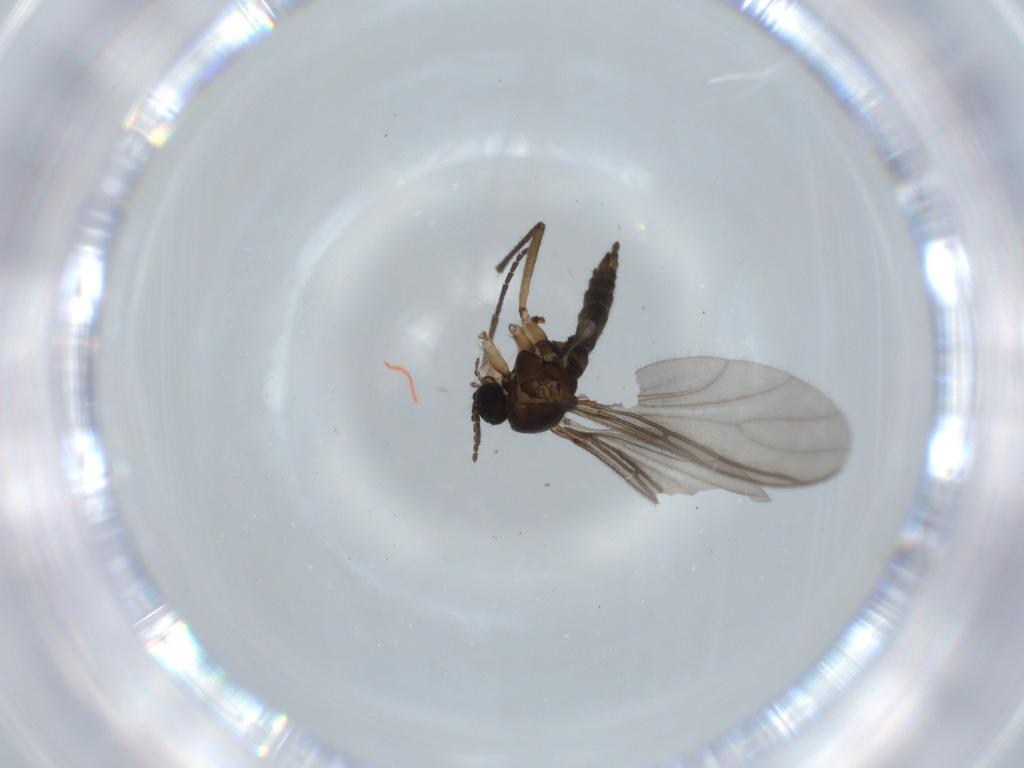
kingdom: Animalia
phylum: Arthropoda
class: Insecta
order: Diptera
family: Sciaridae
